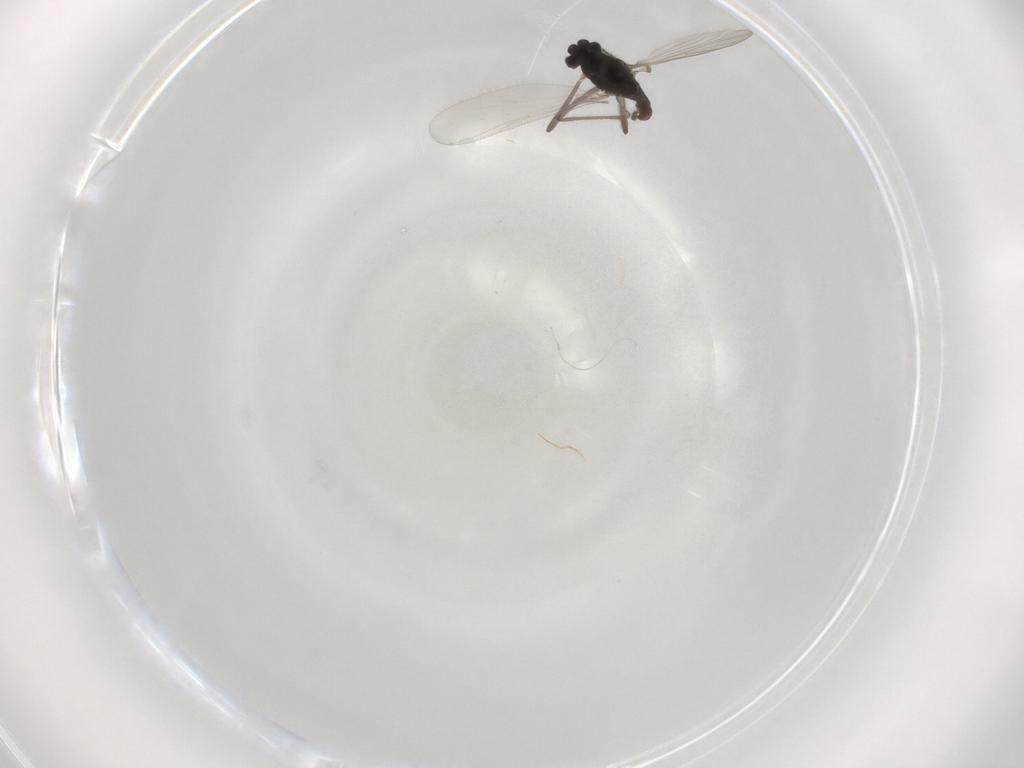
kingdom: Animalia
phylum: Arthropoda
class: Insecta
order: Diptera
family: Chironomidae
